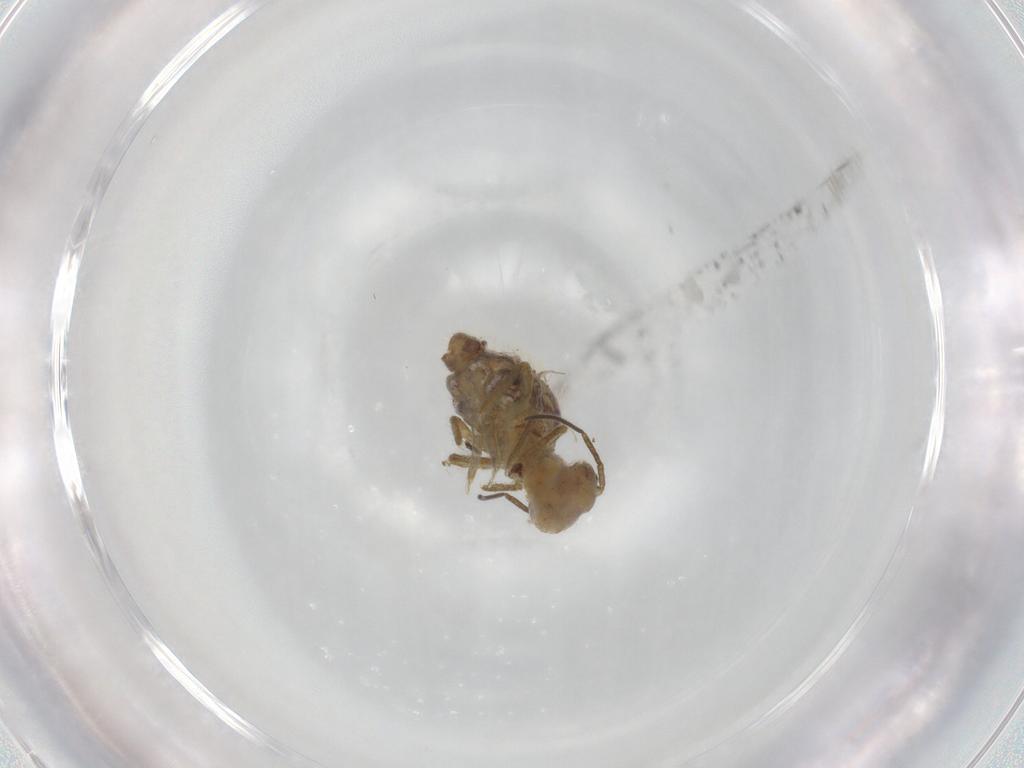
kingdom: Animalia
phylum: Arthropoda
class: Collembola
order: Symphypleona
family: Sminthuridae
